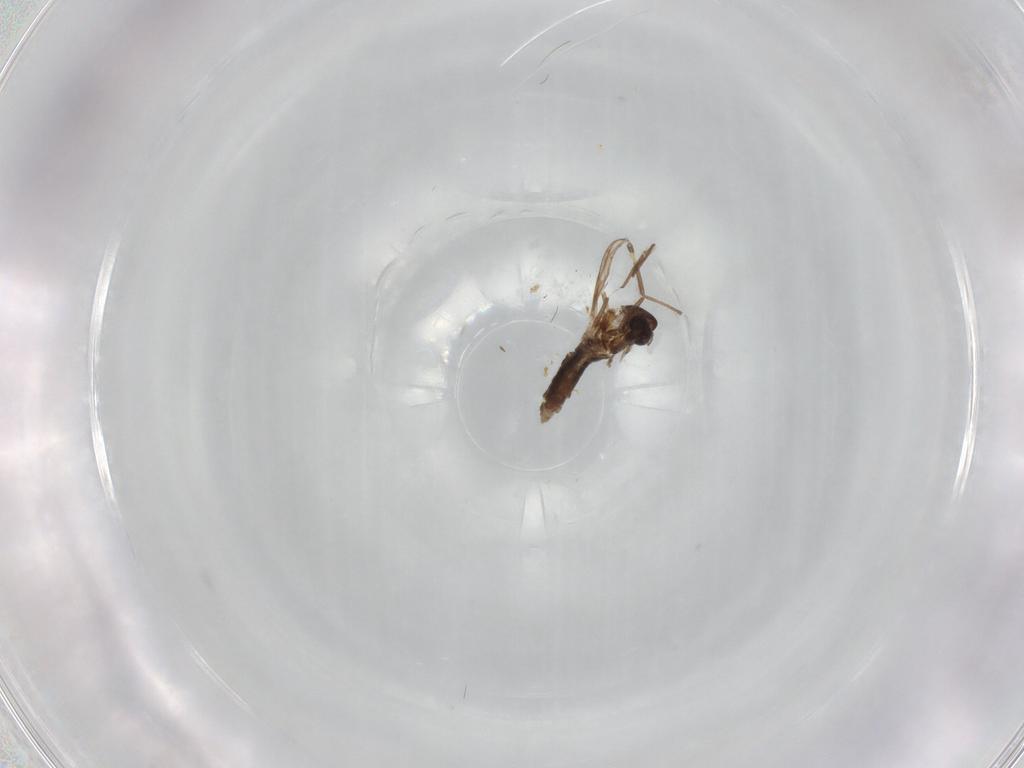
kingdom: Animalia
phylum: Arthropoda
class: Insecta
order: Diptera
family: Chironomidae
